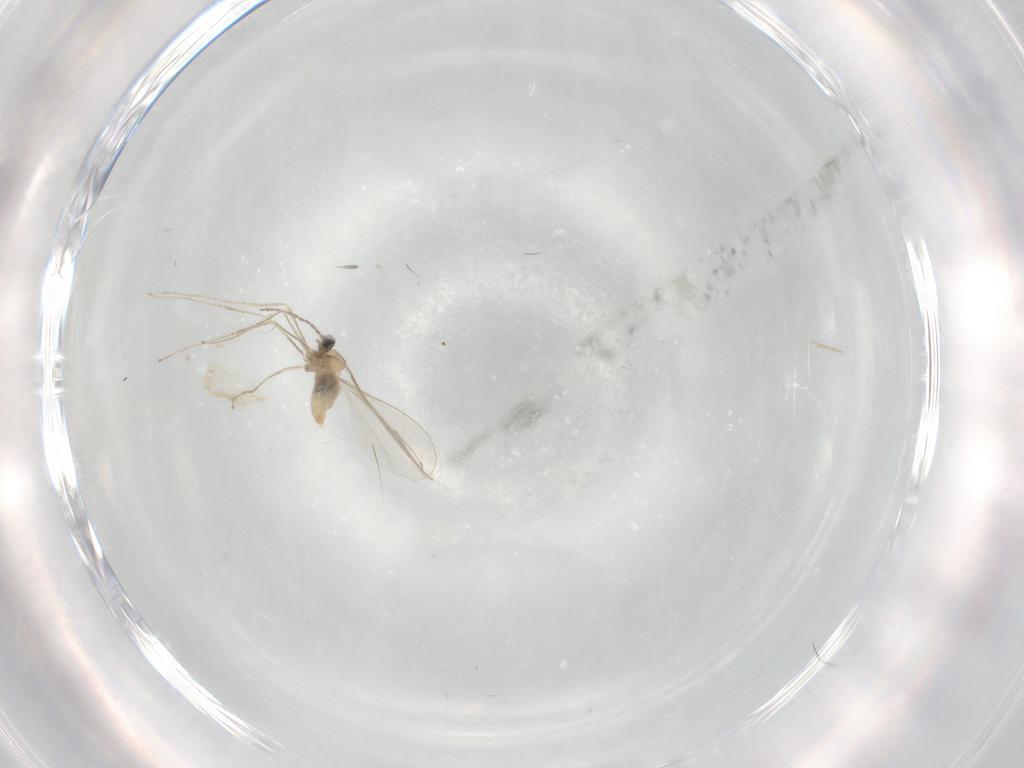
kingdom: Animalia
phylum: Arthropoda
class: Insecta
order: Diptera
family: Cecidomyiidae
